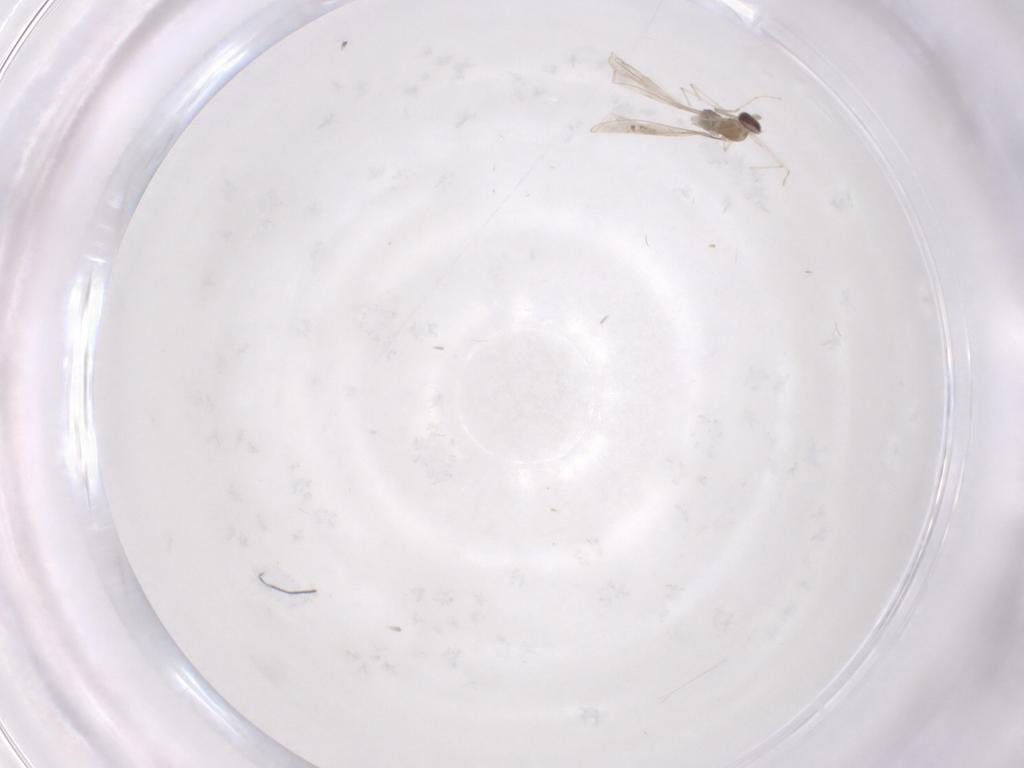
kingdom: Animalia
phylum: Arthropoda
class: Insecta
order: Diptera
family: Cecidomyiidae
